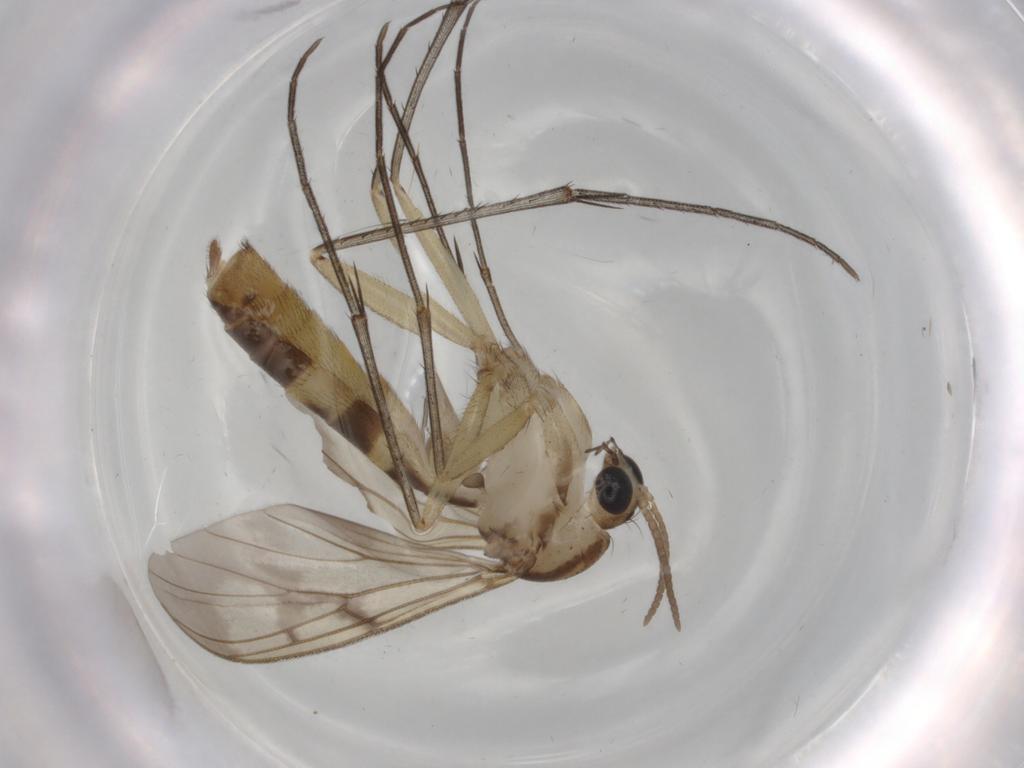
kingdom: Animalia
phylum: Arthropoda
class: Insecta
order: Diptera
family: Mycetophilidae
